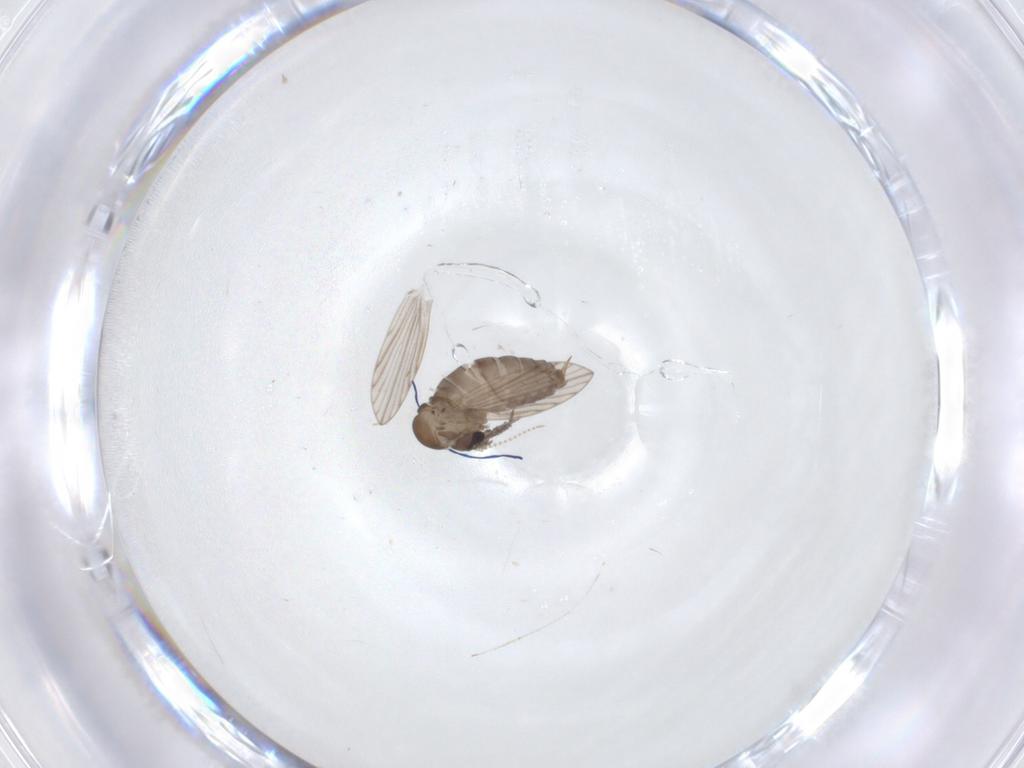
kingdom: Animalia
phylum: Arthropoda
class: Insecta
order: Diptera
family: Psychodidae
